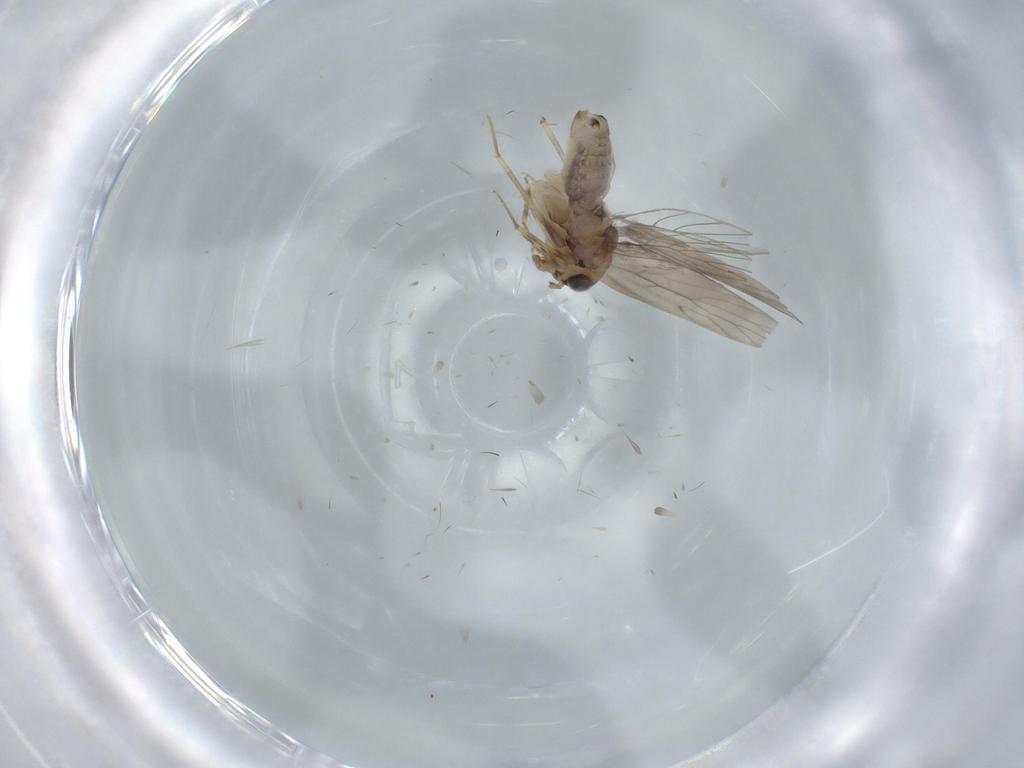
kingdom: Animalia
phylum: Arthropoda
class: Insecta
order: Psocodea
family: Lepidopsocidae
